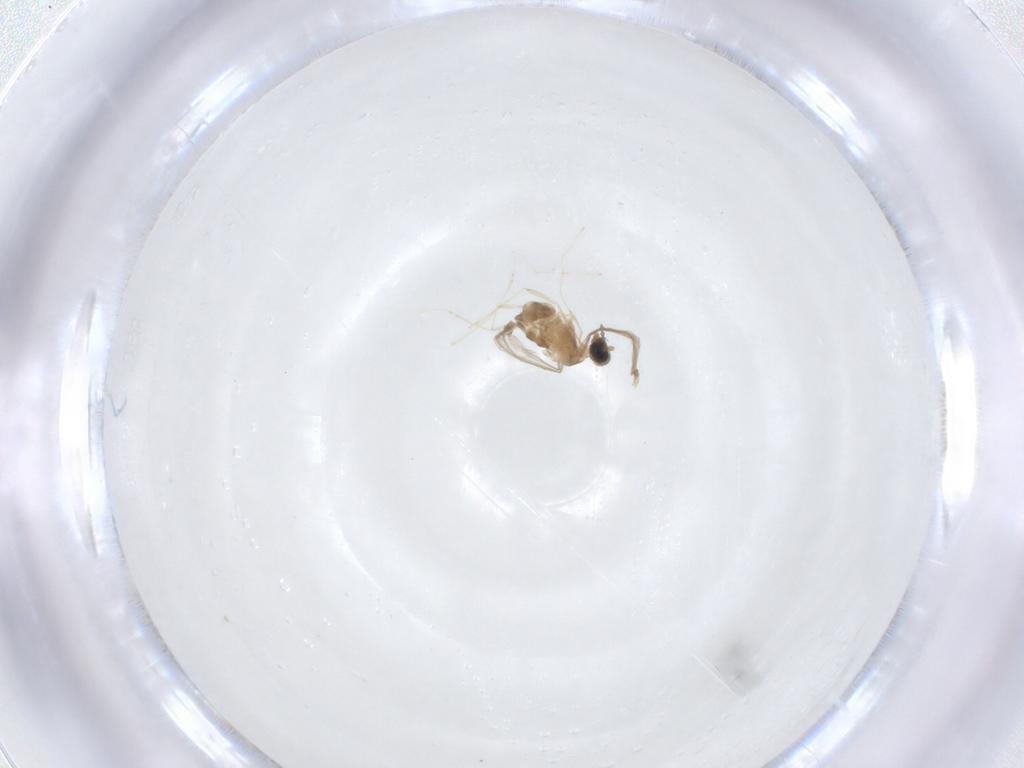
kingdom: Animalia
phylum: Arthropoda
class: Insecta
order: Diptera
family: Cecidomyiidae
